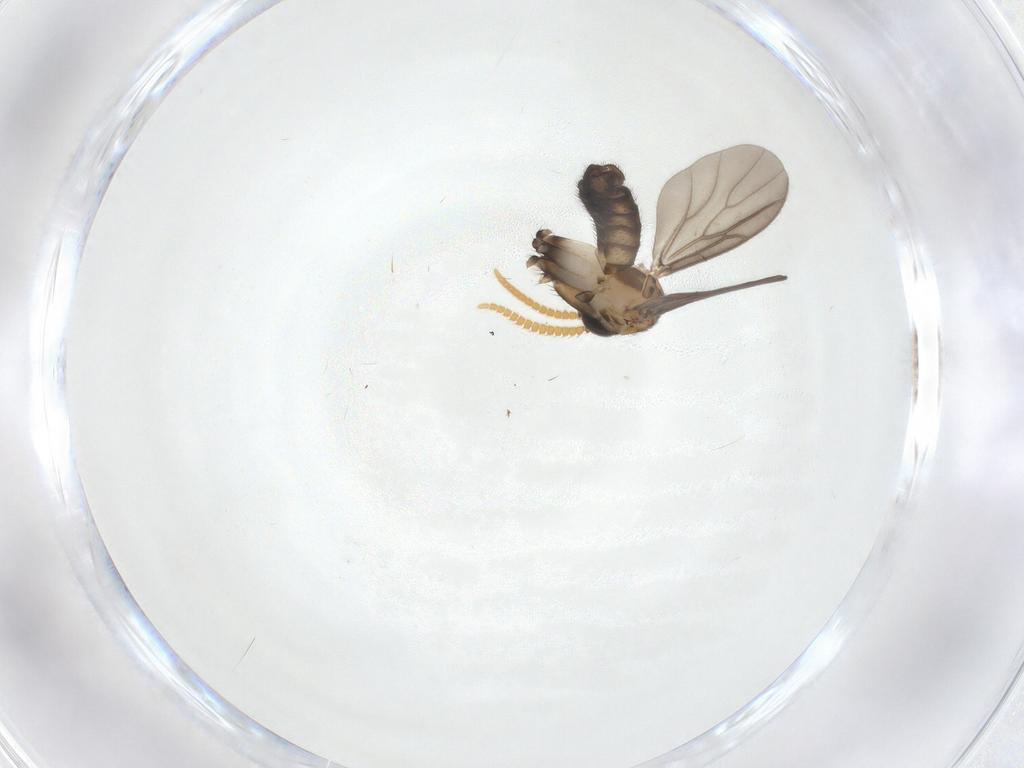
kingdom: Animalia
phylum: Arthropoda
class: Insecta
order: Diptera
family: Mycetophilidae
